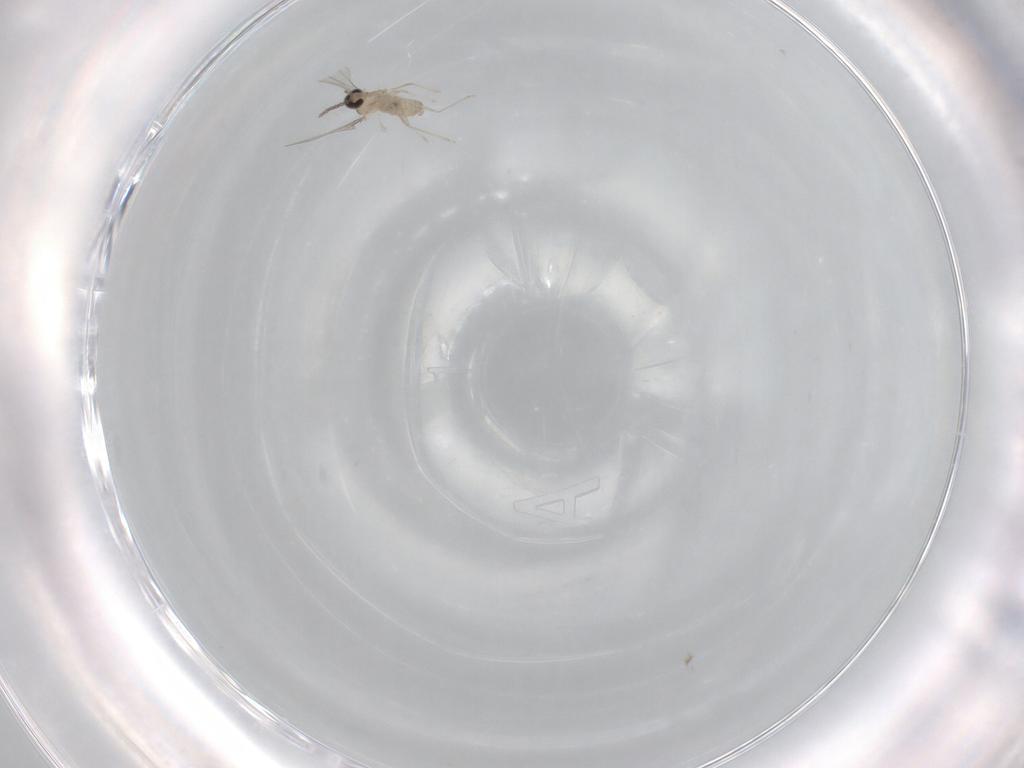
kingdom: Animalia
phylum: Arthropoda
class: Insecta
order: Diptera
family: Cecidomyiidae
